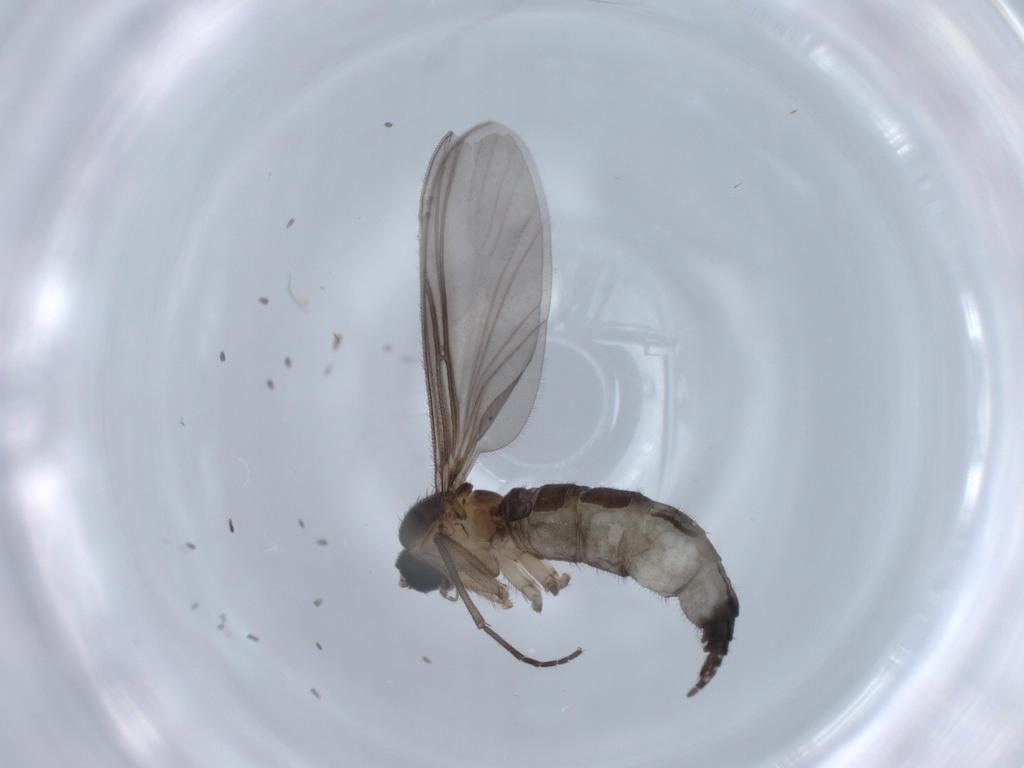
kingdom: Animalia
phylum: Arthropoda
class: Insecta
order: Diptera
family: Sciaridae
